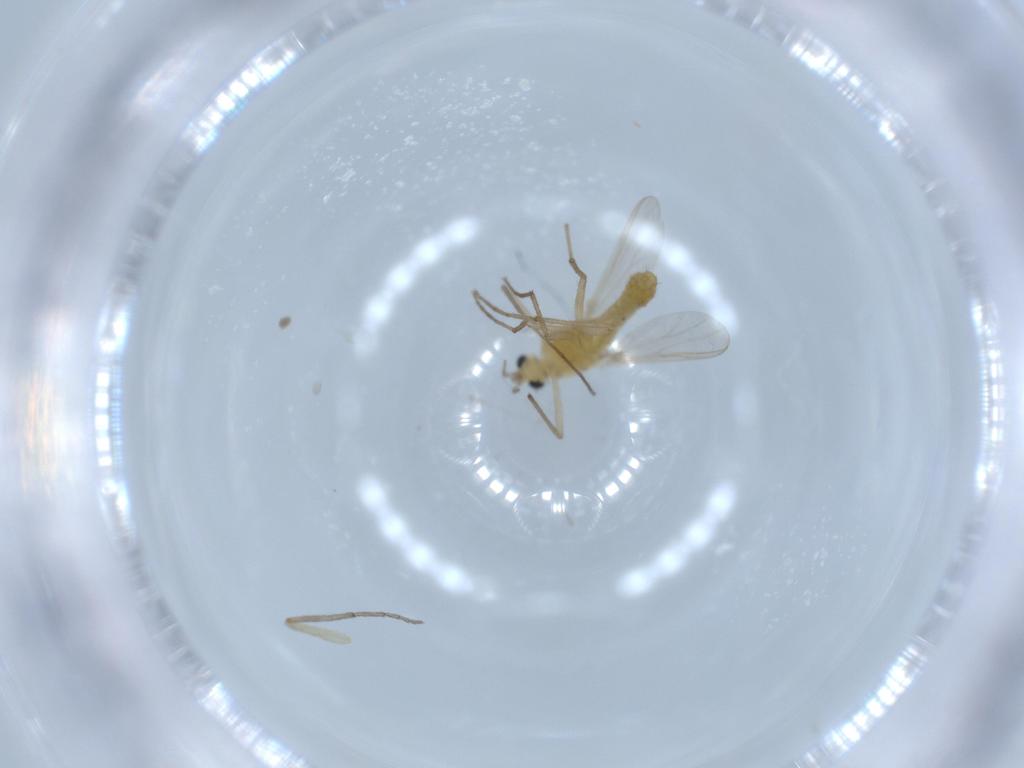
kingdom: Animalia
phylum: Arthropoda
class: Insecta
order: Diptera
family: Chironomidae
